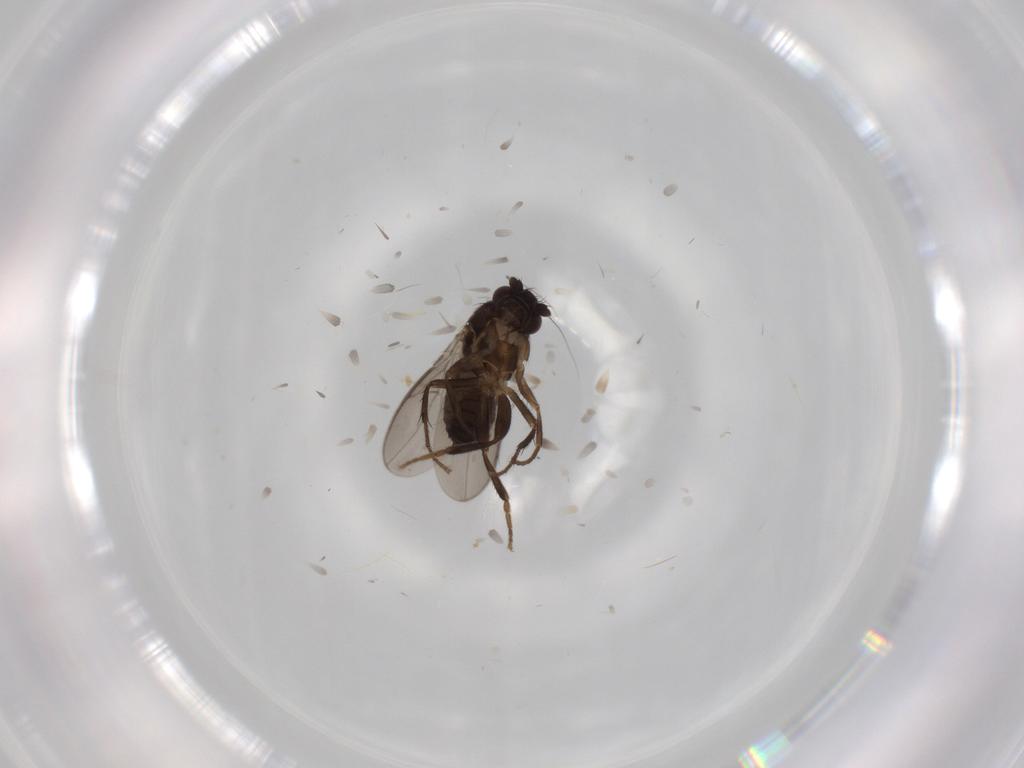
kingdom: Animalia
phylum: Arthropoda
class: Insecta
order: Diptera
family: Sphaeroceridae
